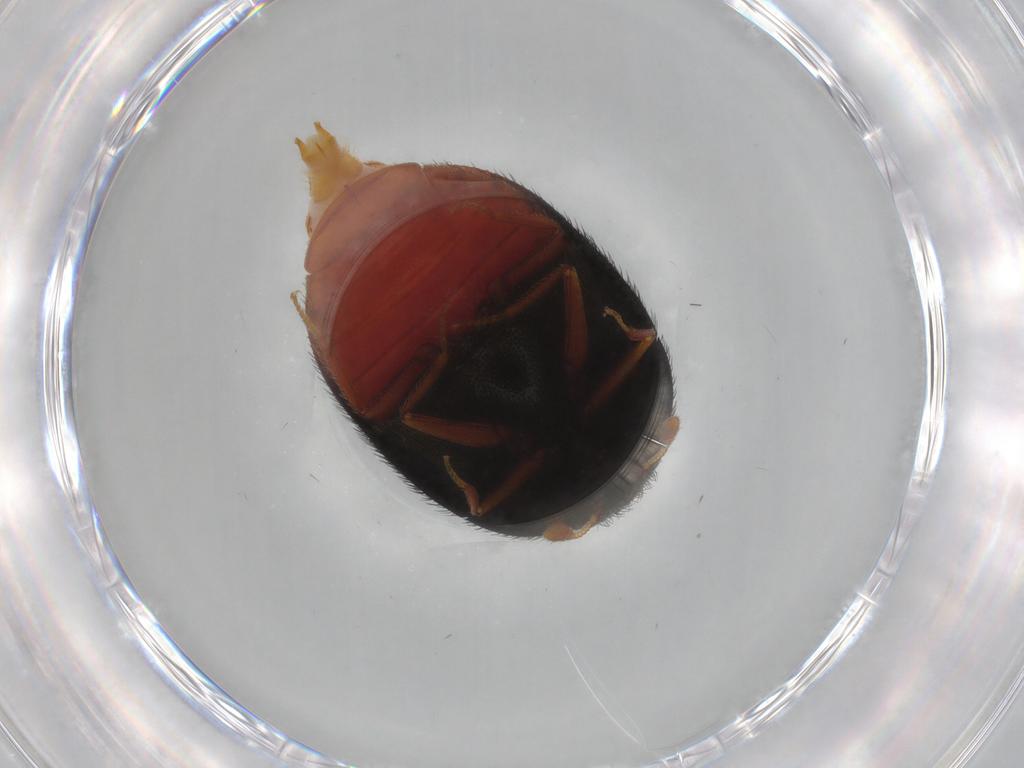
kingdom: Animalia
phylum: Arthropoda
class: Insecta
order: Coleoptera
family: Dermestidae
